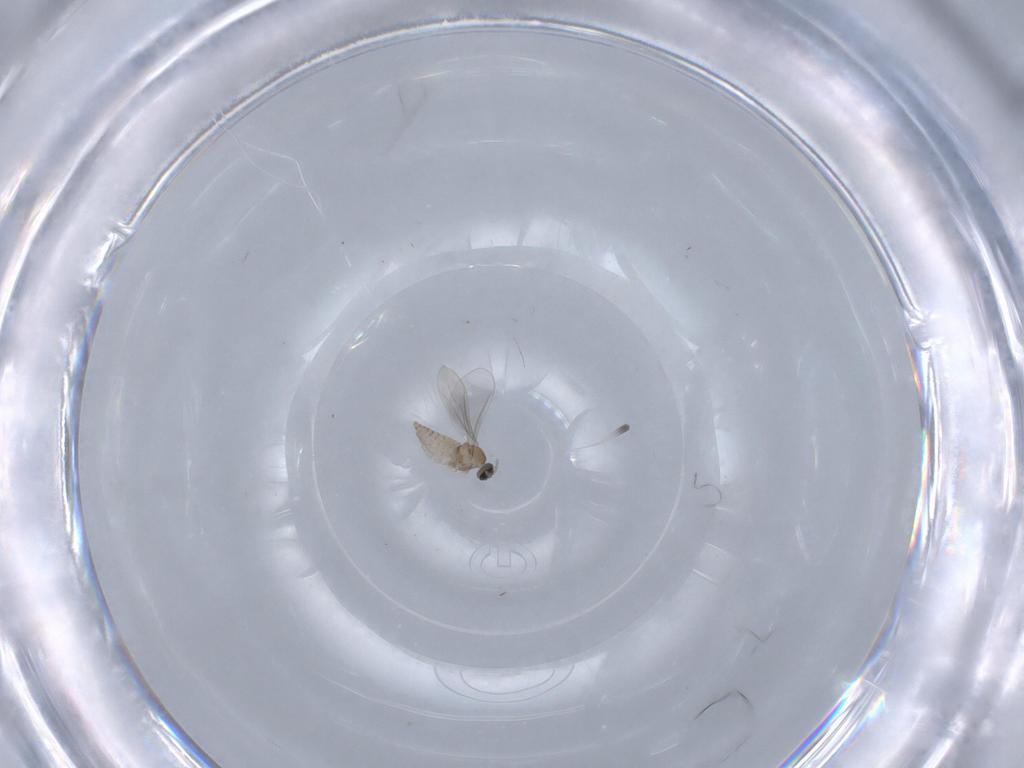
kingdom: Animalia
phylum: Arthropoda
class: Insecta
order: Diptera
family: Cecidomyiidae
